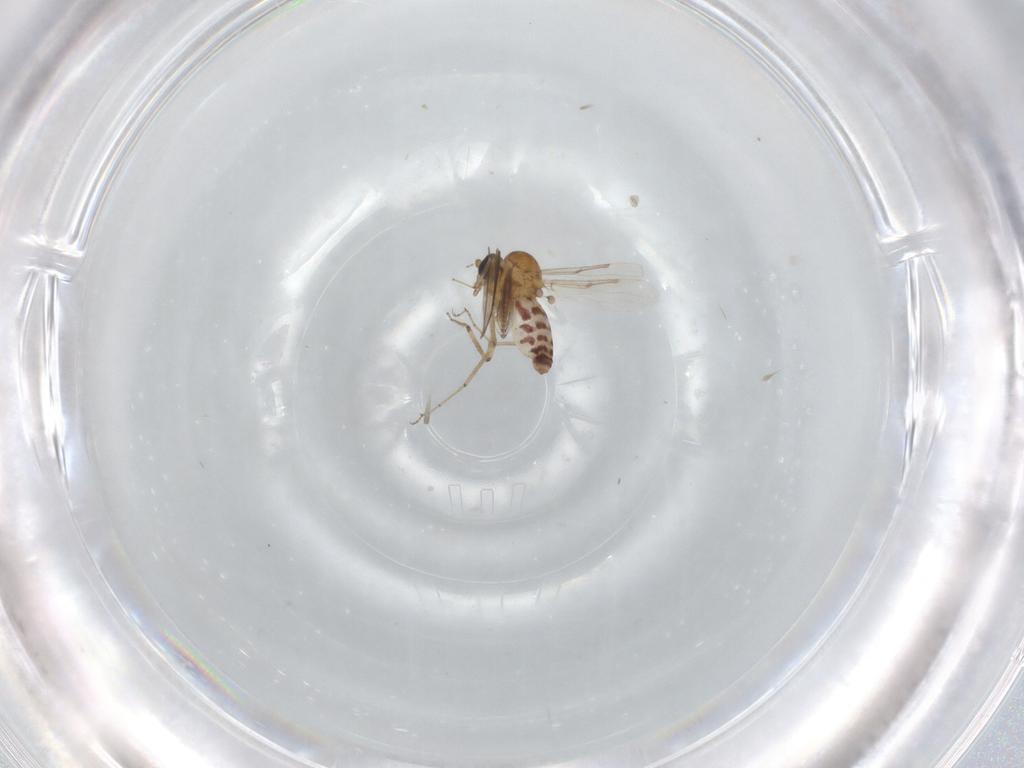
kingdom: Animalia
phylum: Arthropoda
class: Insecta
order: Diptera
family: Ceratopogonidae
